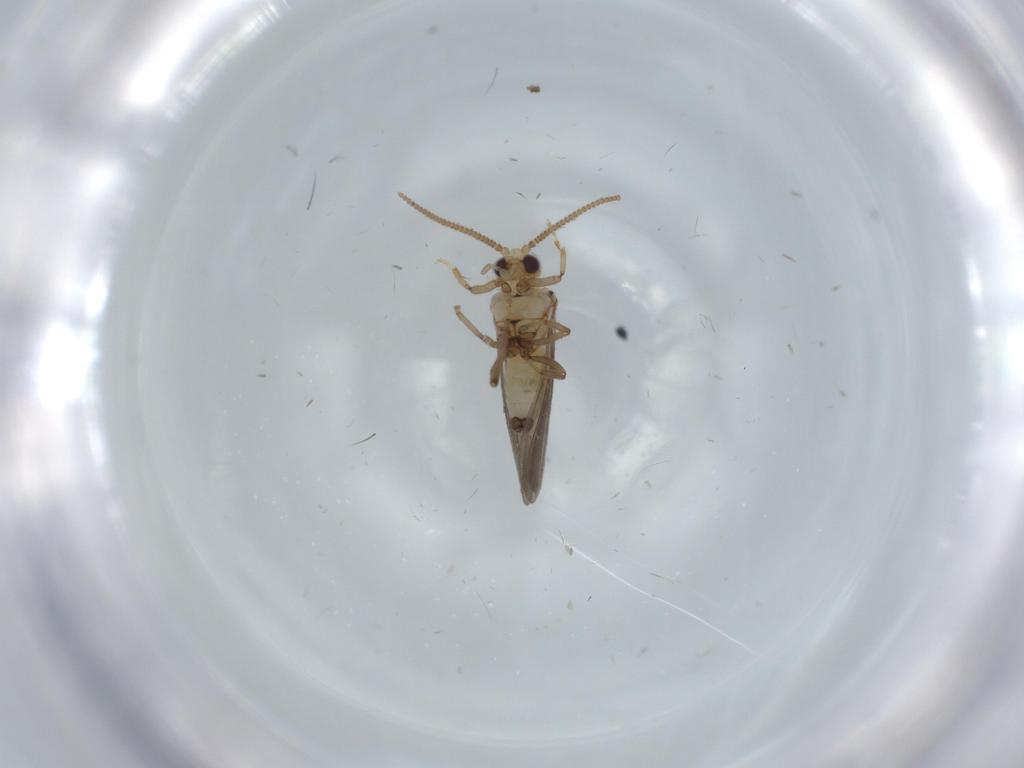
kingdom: Animalia
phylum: Arthropoda
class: Insecta
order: Neuroptera
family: Coniopterygidae
